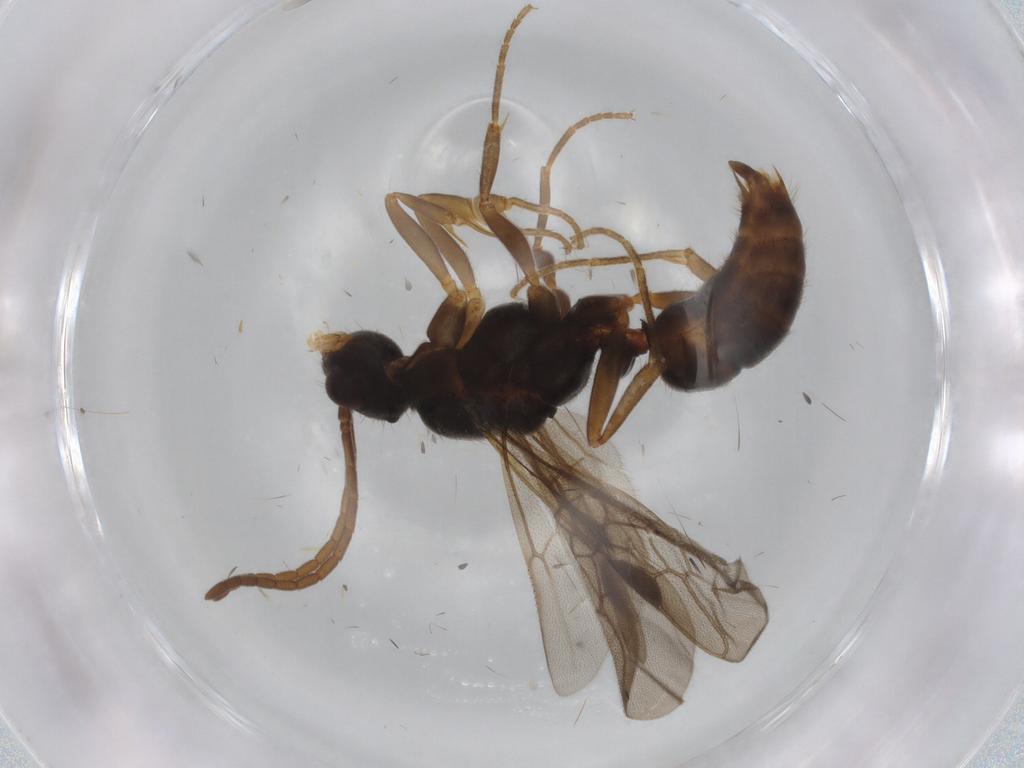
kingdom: Animalia
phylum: Arthropoda
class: Insecta
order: Hymenoptera
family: Formicidae
